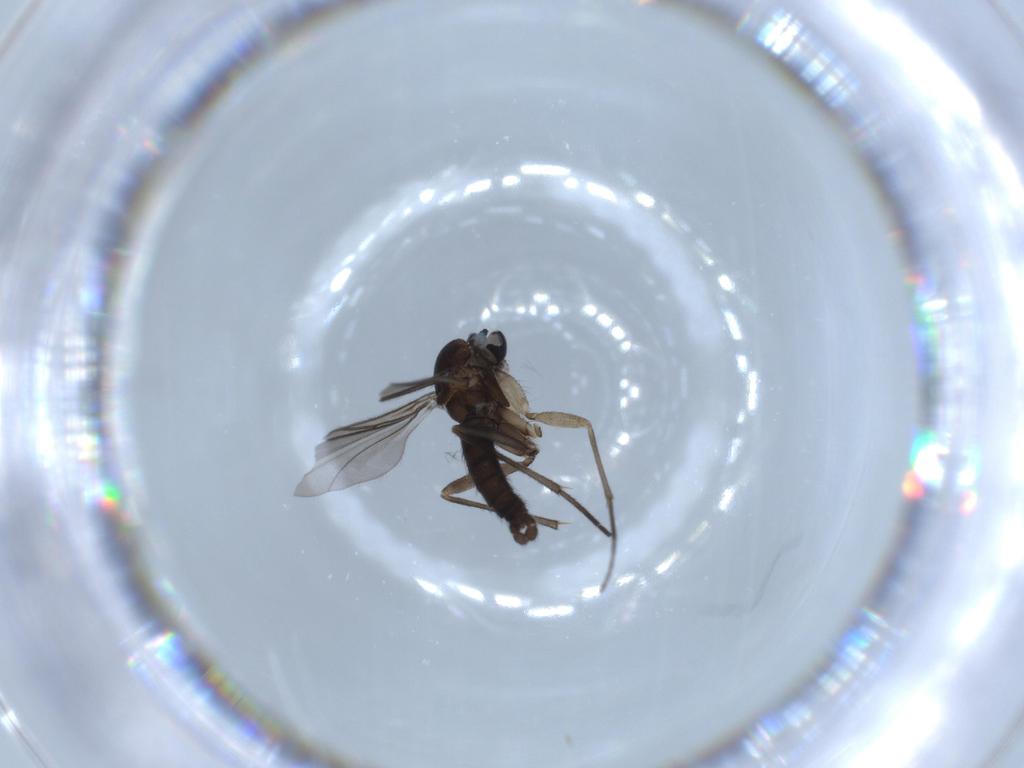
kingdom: Animalia
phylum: Arthropoda
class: Insecta
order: Diptera
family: Sciaridae
